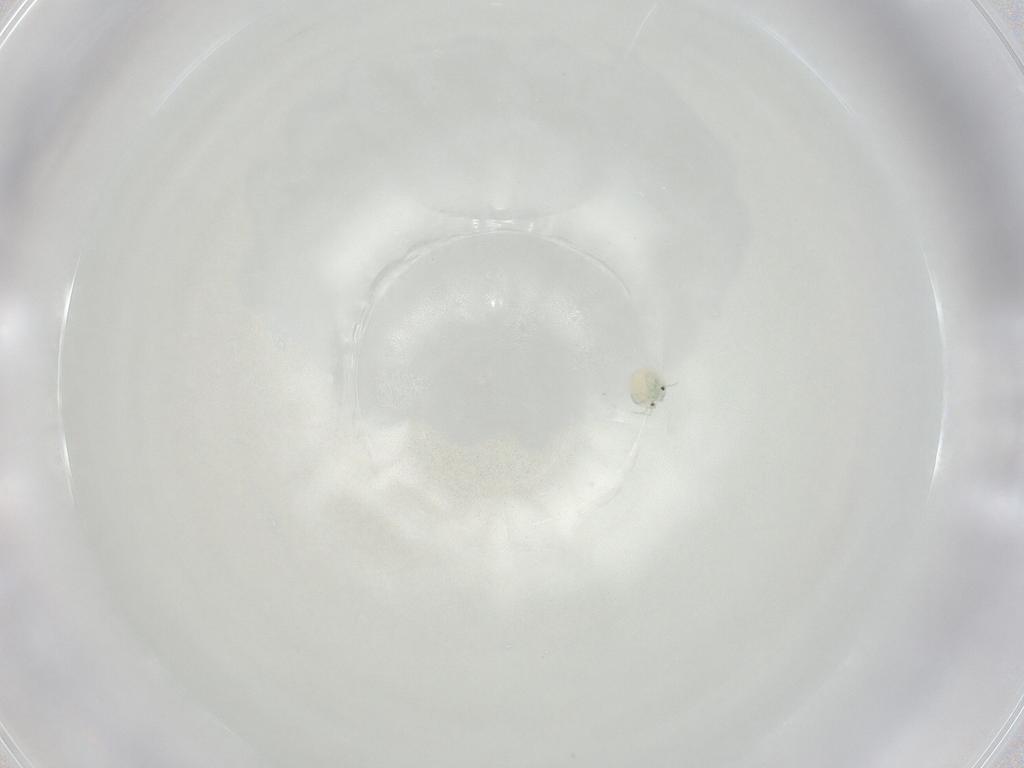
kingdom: Animalia
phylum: Arthropoda
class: Arachnida
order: Trombidiformes
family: Arrenuridae
